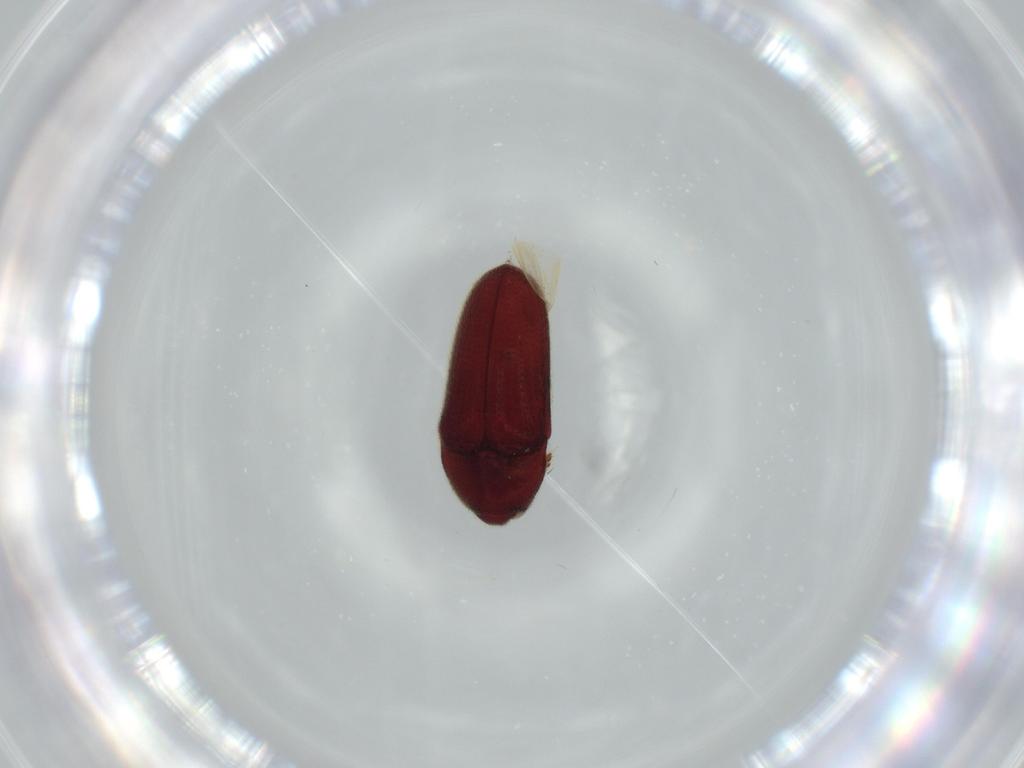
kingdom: Animalia
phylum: Arthropoda
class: Insecta
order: Coleoptera
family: Throscidae
